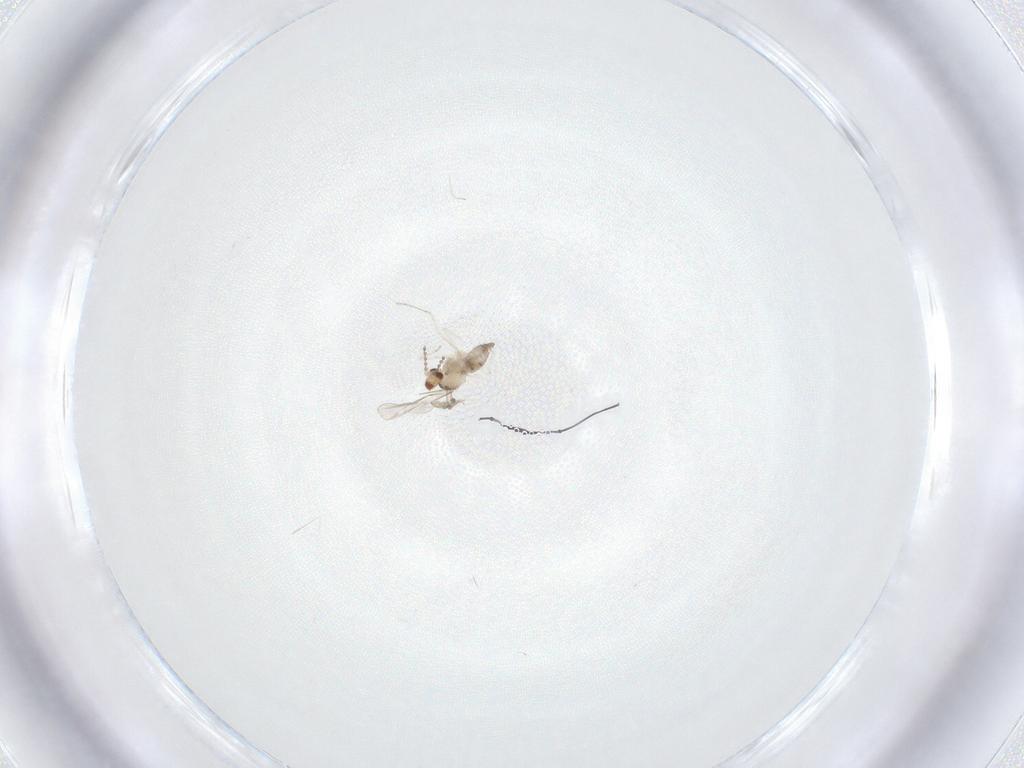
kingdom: Animalia
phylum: Arthropoda
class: Insecta
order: Diptera
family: Cecidomyiidae
